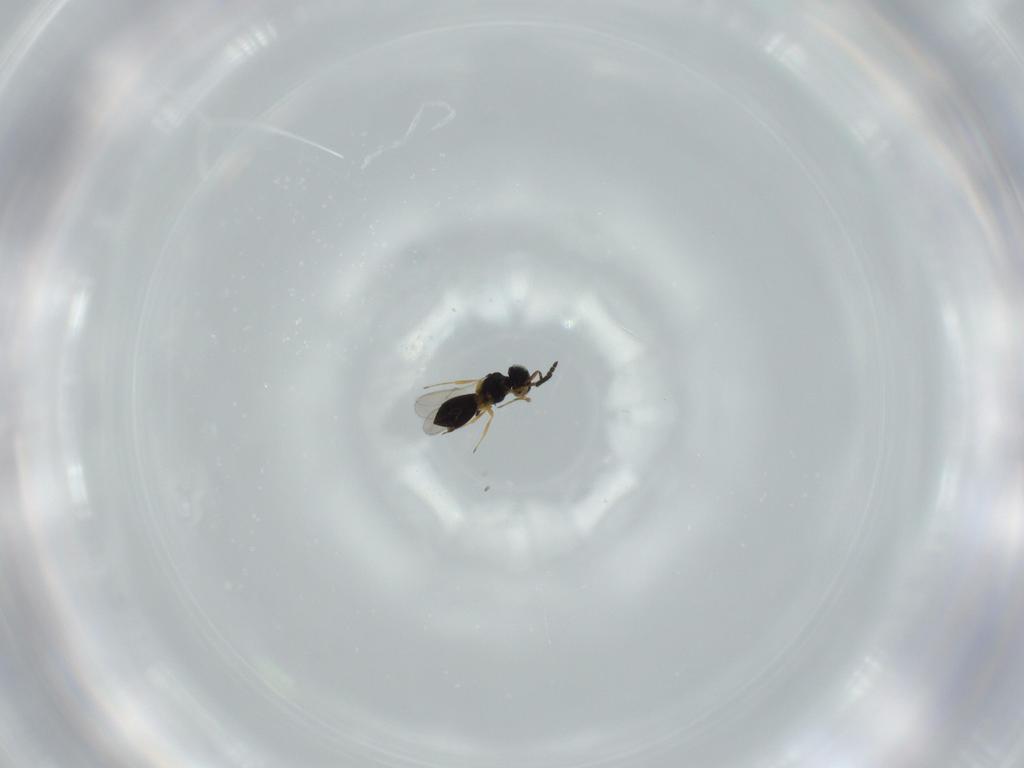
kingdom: Animalia
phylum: Arthropoda
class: Insecta
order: Hymenoptera
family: Scelionidae
